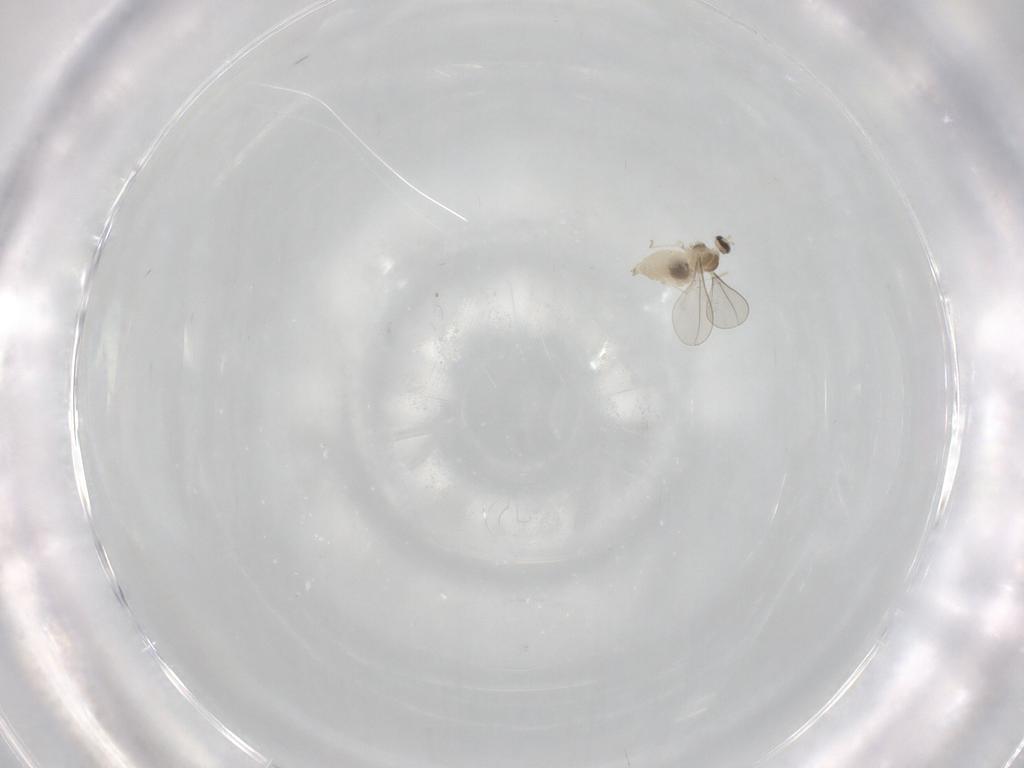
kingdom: Animalia
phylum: Arthropoda
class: Insecta
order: Diptera
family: Cecidomyiidae
